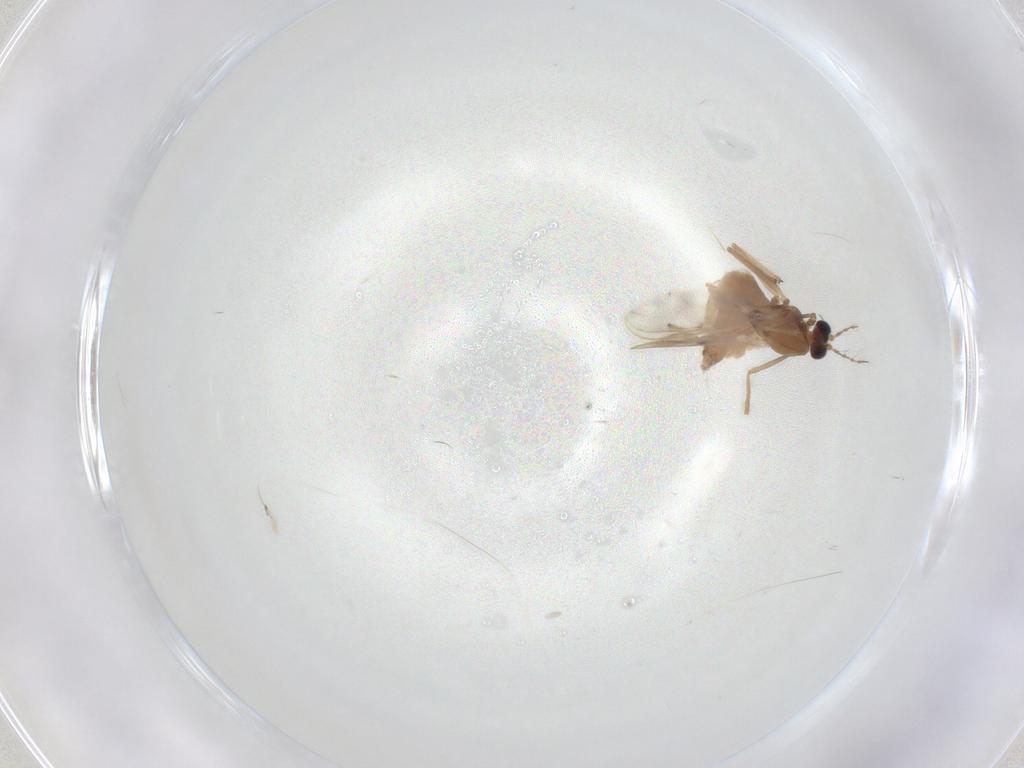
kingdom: Animalia
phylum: Arthropoda
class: Insecta
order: Diptera
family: Chironomidae
